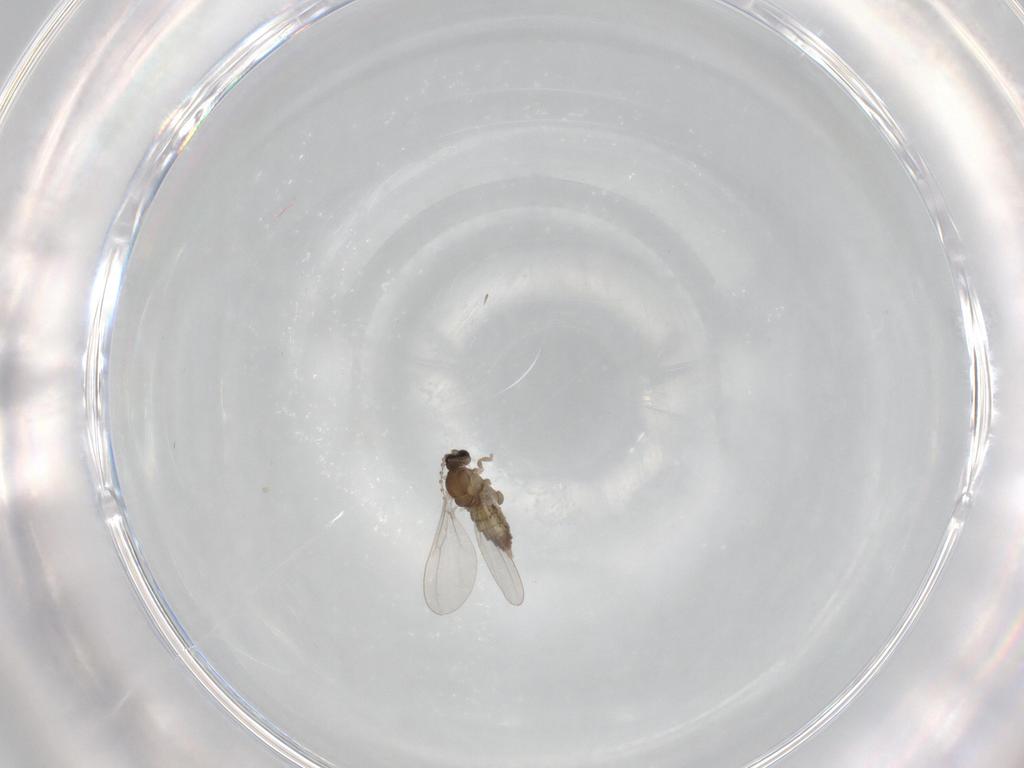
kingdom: Animalia
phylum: Arthropoda
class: Insecta
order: Diptera
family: Cecidomyiidae
